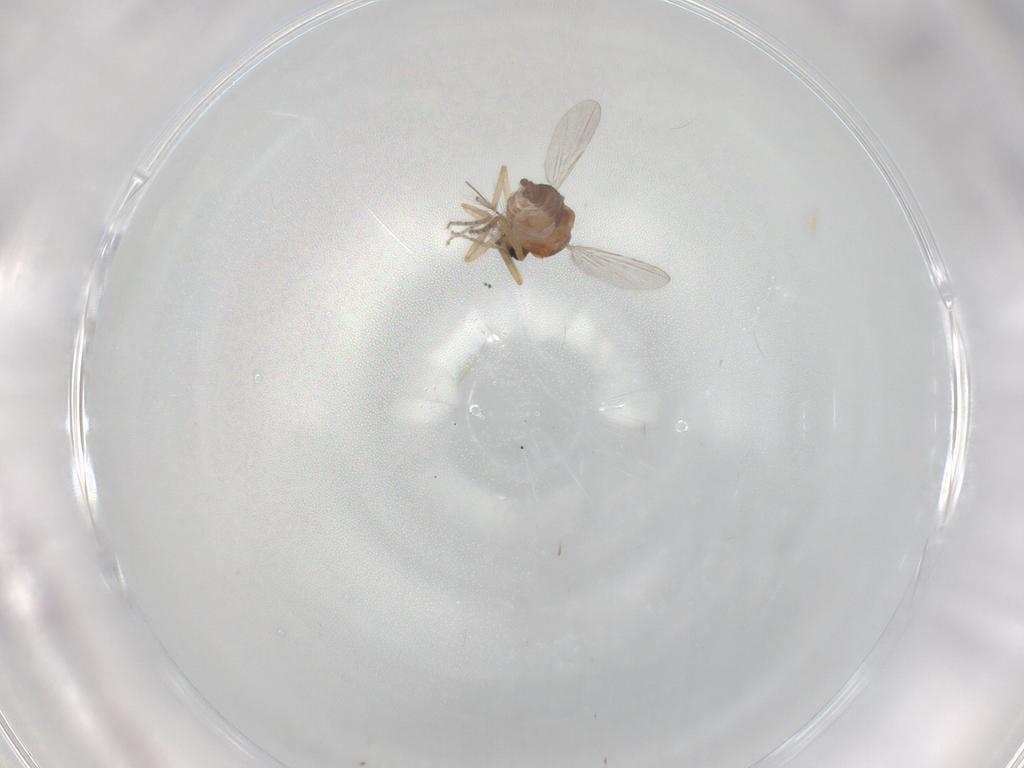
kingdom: Animalia
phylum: Arthropoda
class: Insecta
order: Diptera
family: Ceratopogonidae
